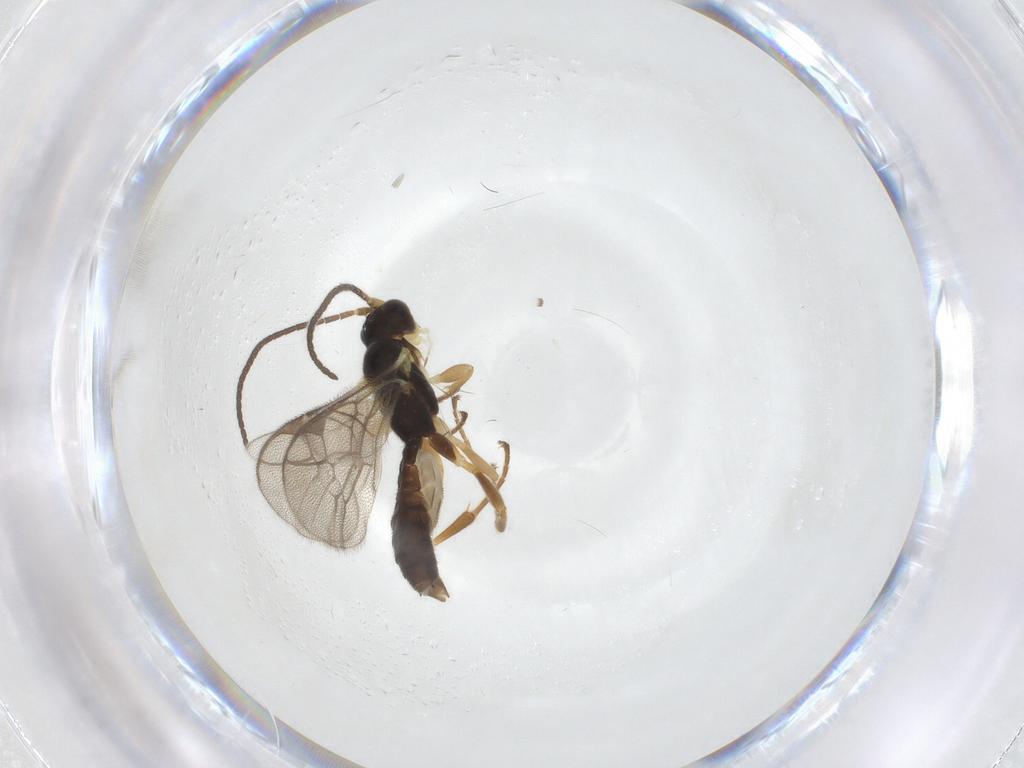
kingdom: Animalia
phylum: Arthropoda
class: Insecta
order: Hymenoptera
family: Ichneumonidae
